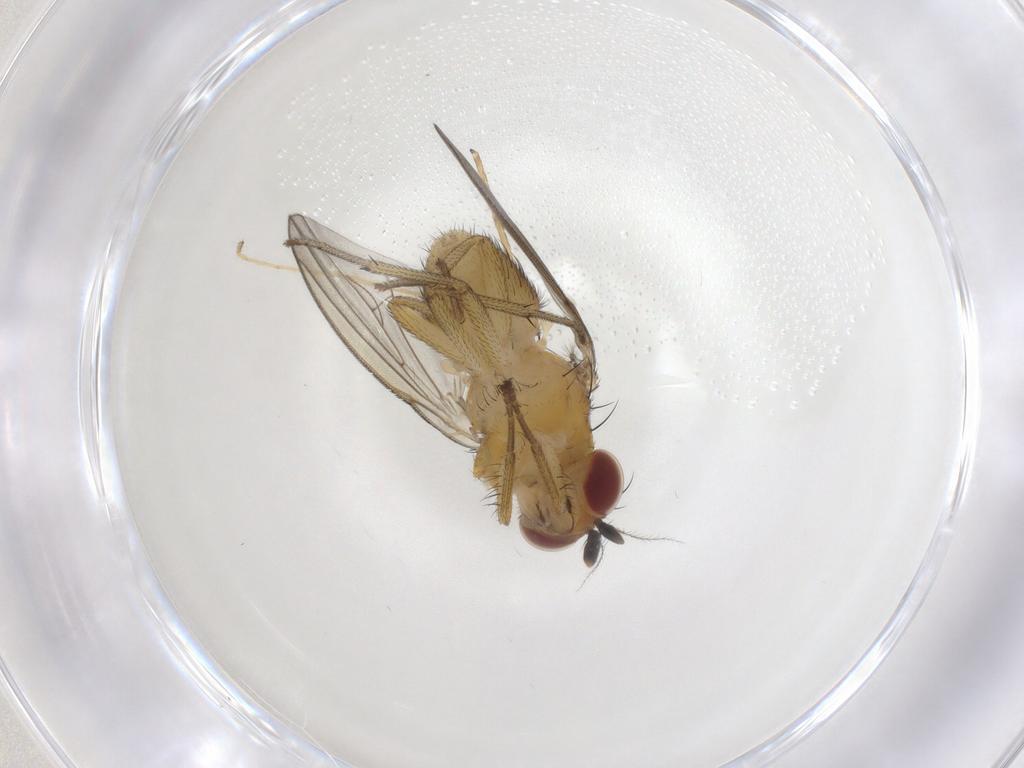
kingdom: Animalia
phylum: Arthropoda
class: Insecta
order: Diptera
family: Lauxaniidae
